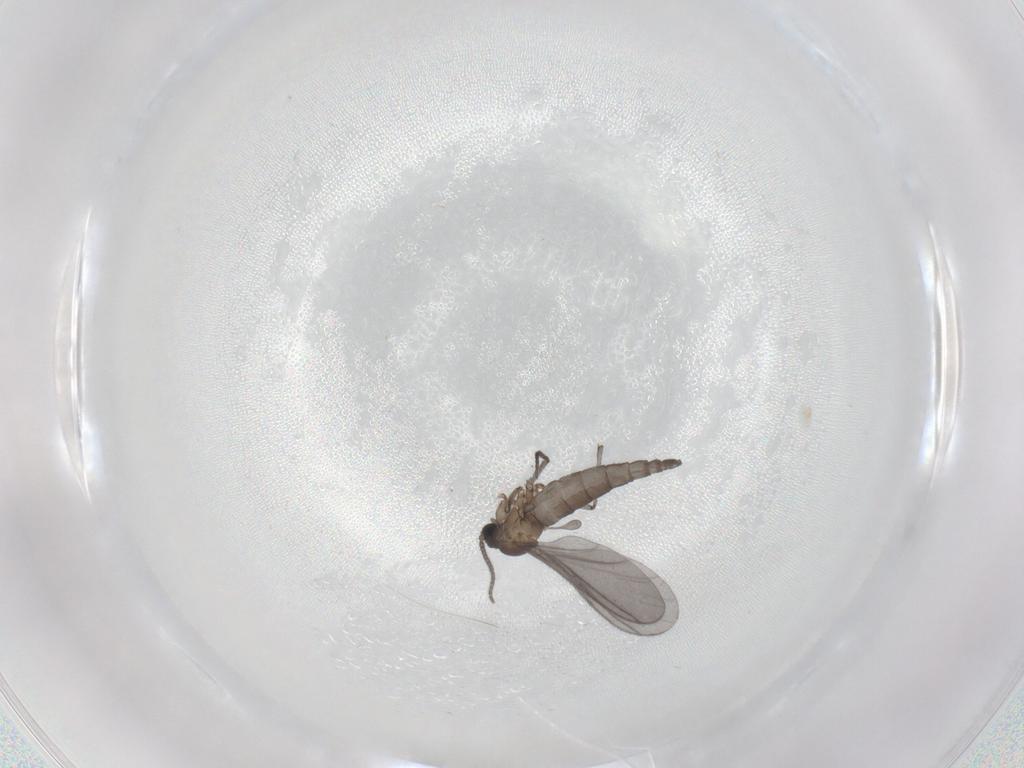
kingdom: Animalia
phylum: Arthropoda
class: Insecta
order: Diptera
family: Sciaridae
